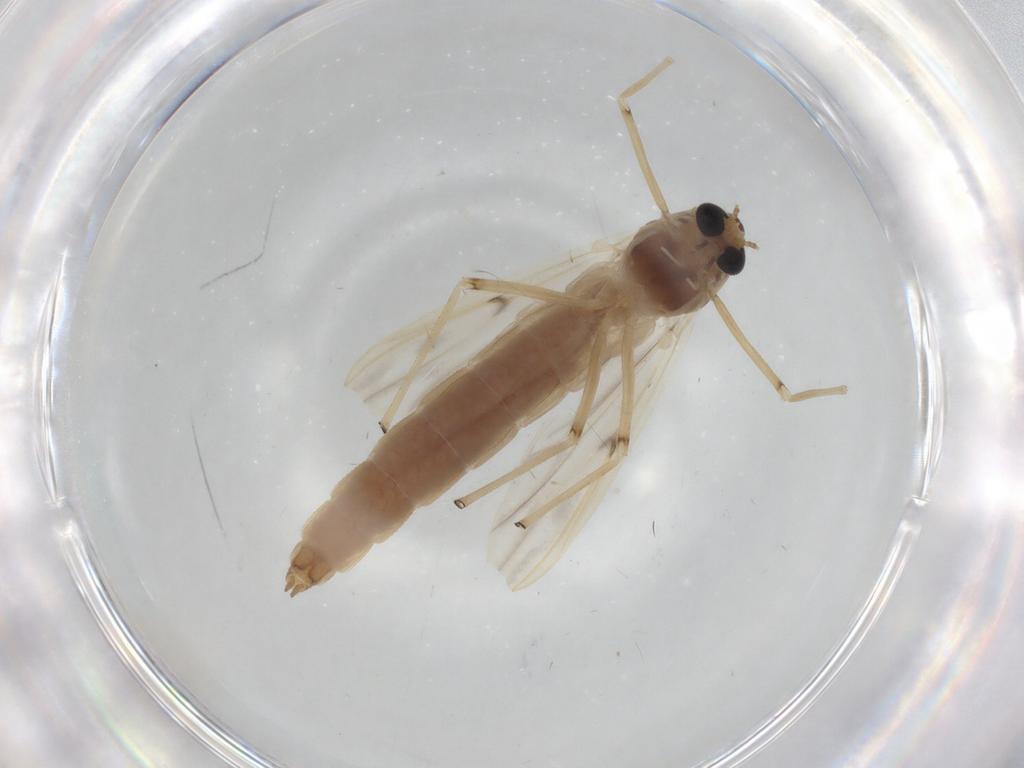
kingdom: Animalia
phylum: Arthropoda
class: Insecta
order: Diptera
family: Chironomidae
